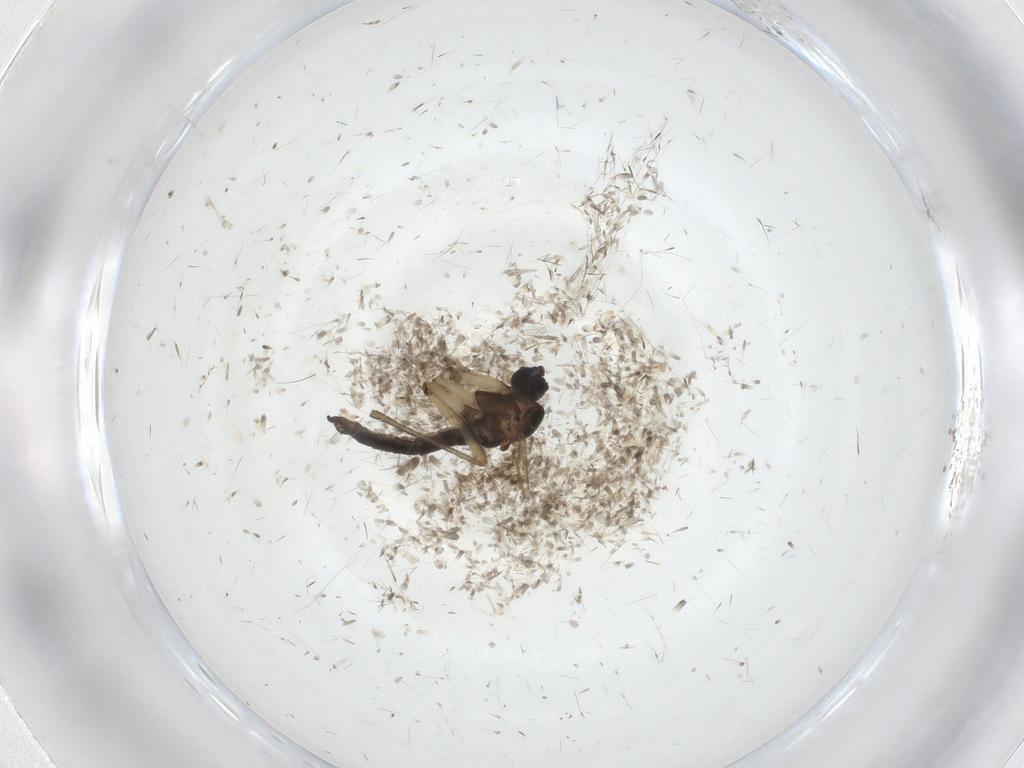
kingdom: Animalia
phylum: Arthropoda
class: Insecta
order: Diptera
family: Sciaridae
